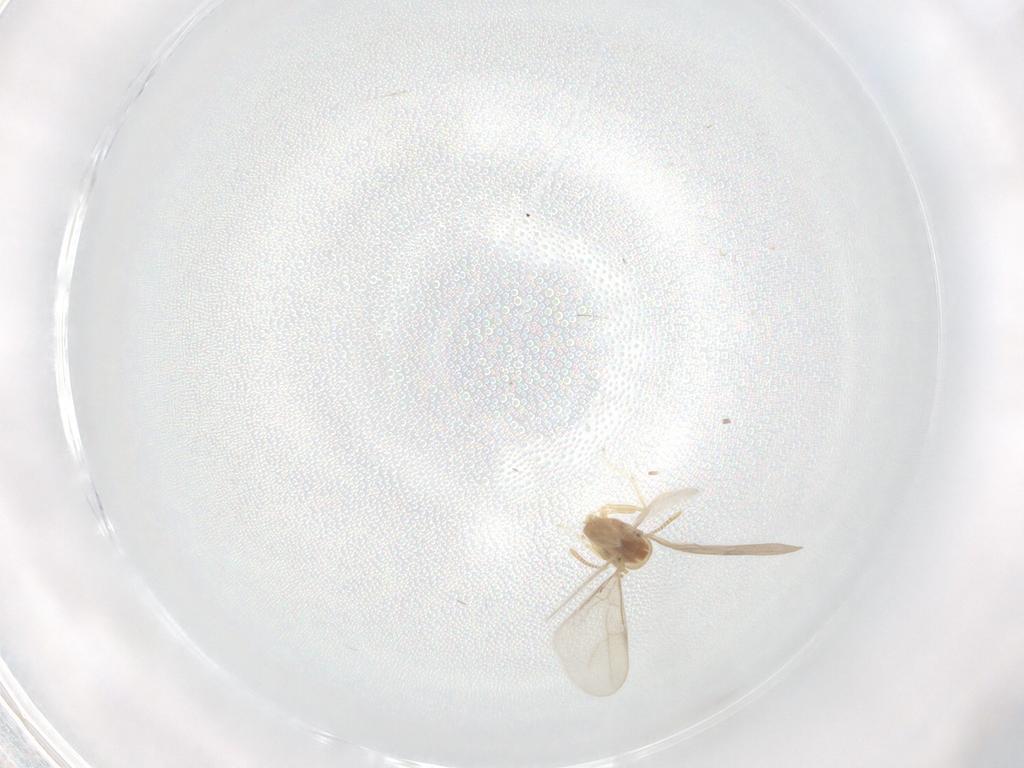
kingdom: Animalia
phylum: Arthropoda
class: Insecta
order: Hymenoptera
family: Formicidae
